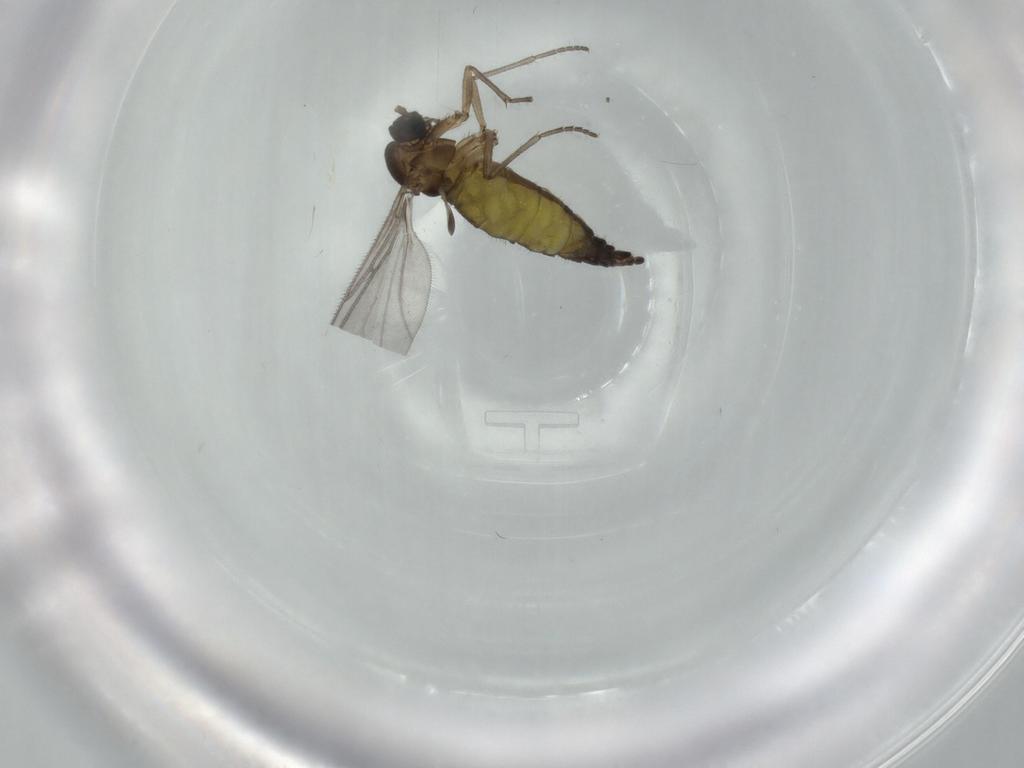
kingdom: Animalia
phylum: Arthropoda
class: Insecta
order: Diptera
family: Sciaridae
